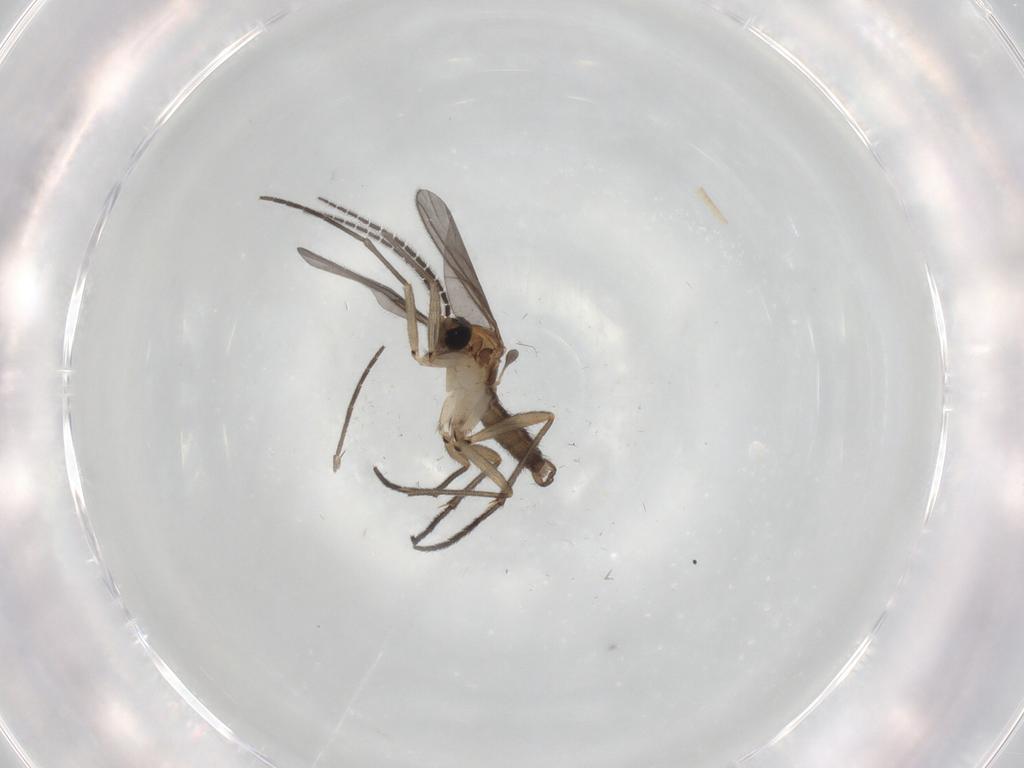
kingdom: Animalia
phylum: Arthropoda
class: Insecta
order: Diptera
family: Sciaridae
